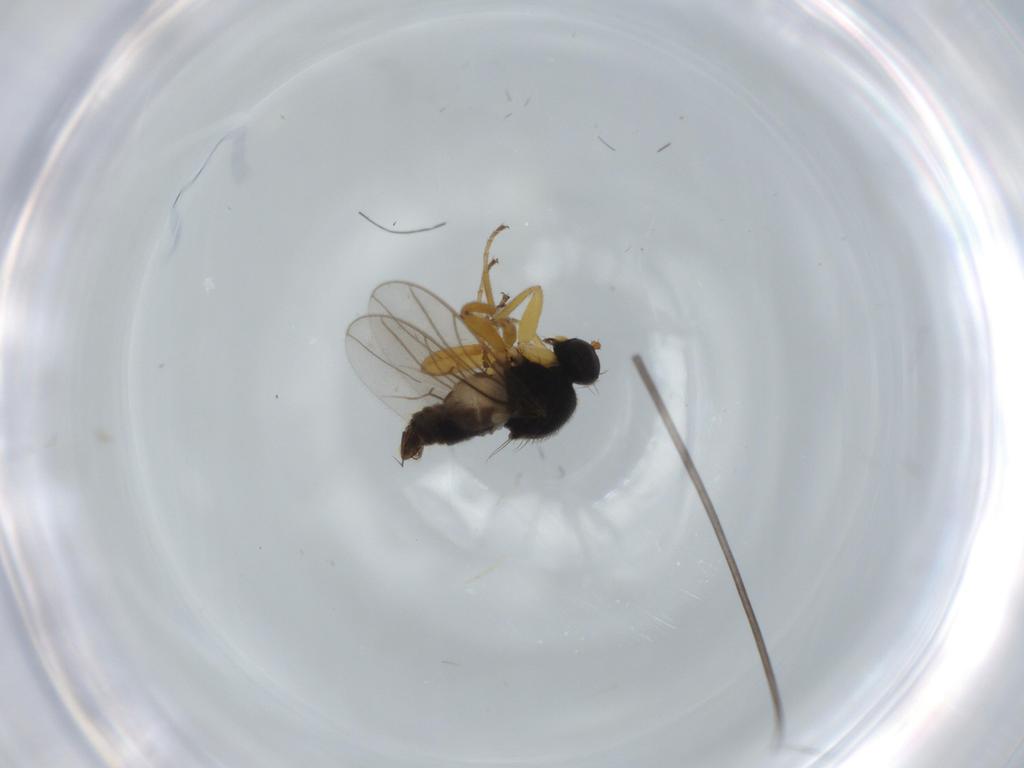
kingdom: Animalia
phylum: Arthropoda
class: Insecta
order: Diptera
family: Hybotidae
